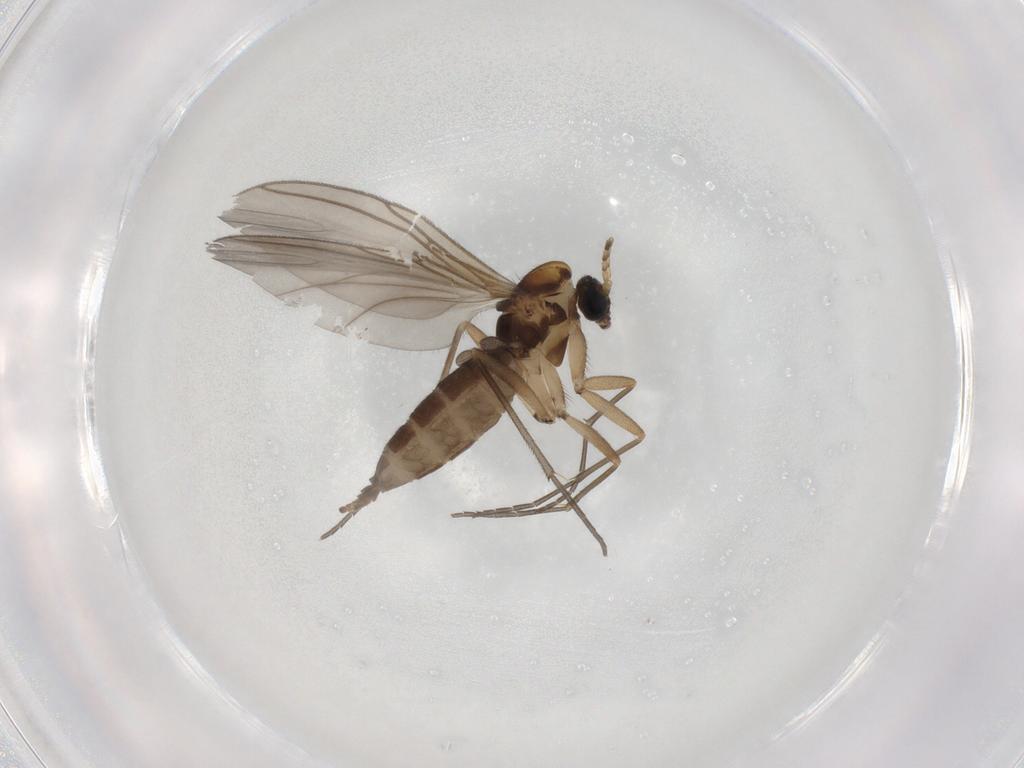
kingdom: Animalia
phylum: Arthropoda
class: Insecta
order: Diptera
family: Sciaridae
